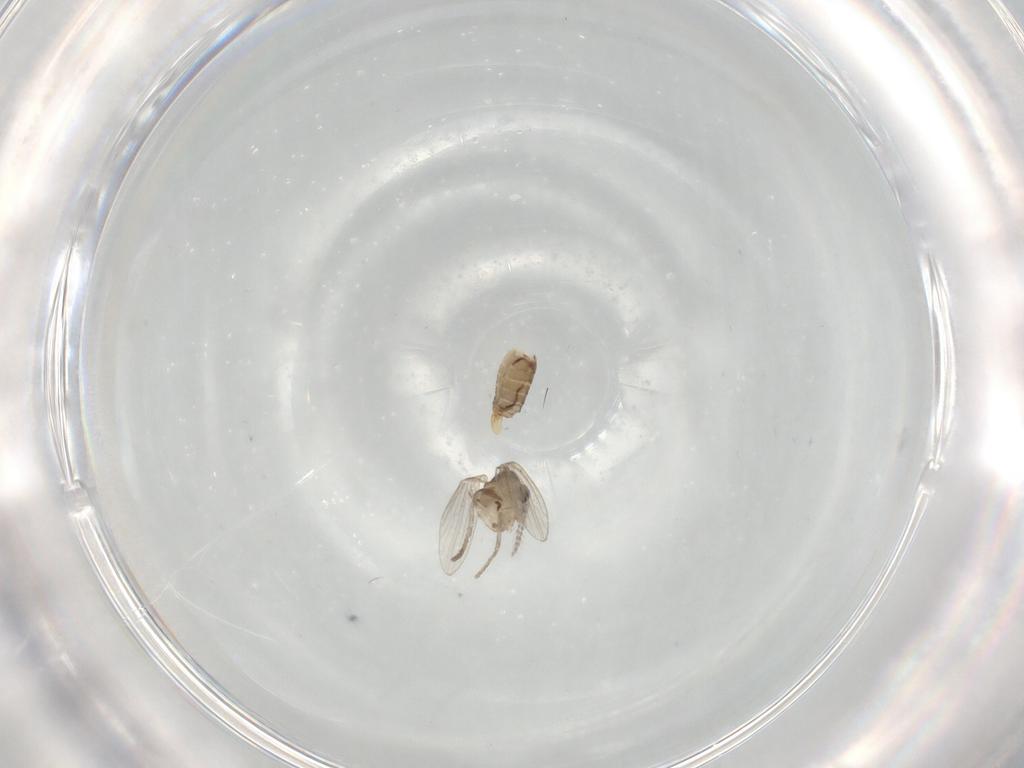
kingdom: Animalia
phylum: Arthropoda
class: Insecta
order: Diptera
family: Psychodidae
